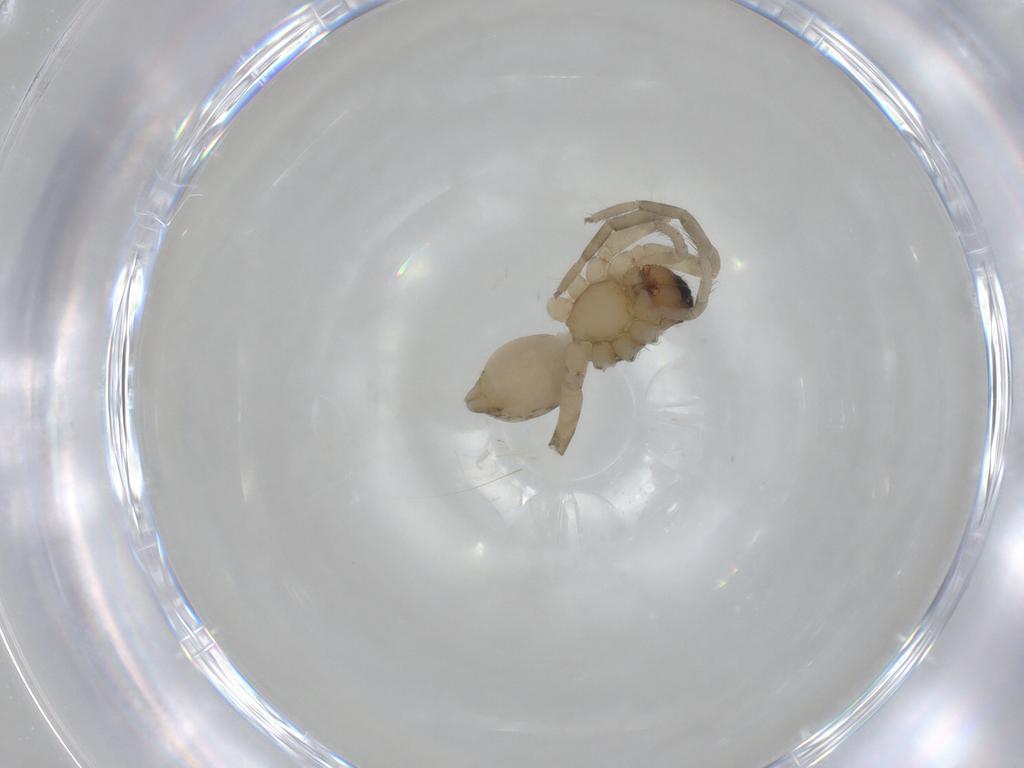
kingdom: Animalia
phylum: Arthropoda
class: Arachnida
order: Araneae
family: Lycosidae
